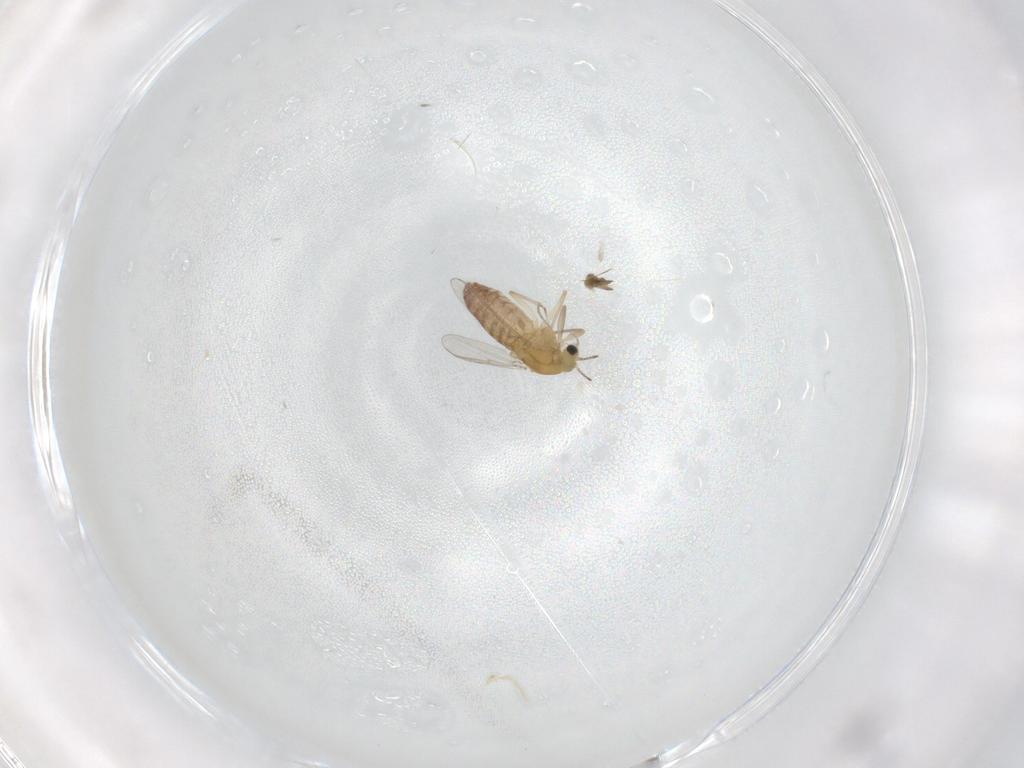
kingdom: Animalia
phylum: Arthropoda
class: Insecta
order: Diptera
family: Chironomidae
